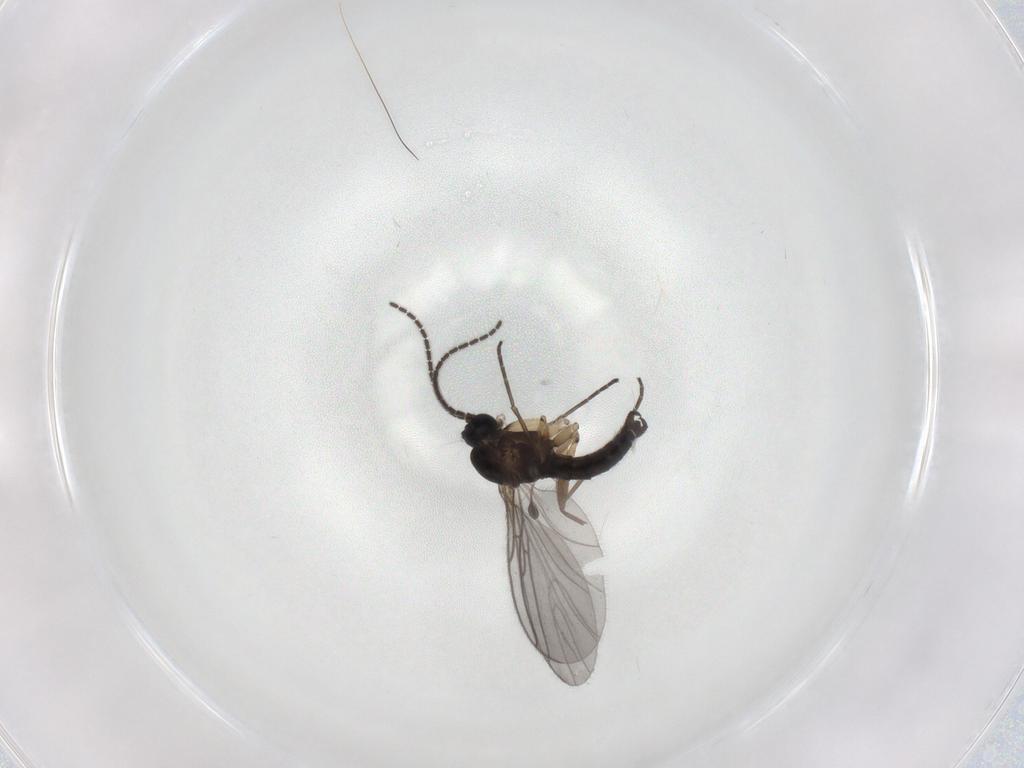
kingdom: Animalia
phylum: Arthropoda
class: Insecta
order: Diptera
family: Sciaridae
